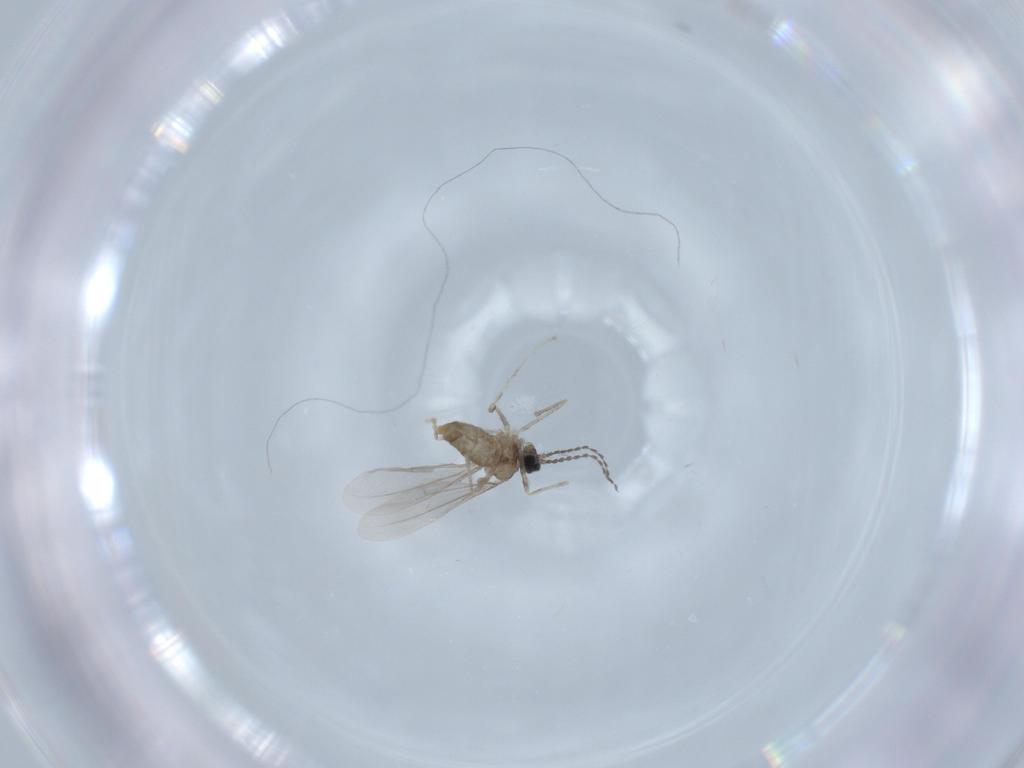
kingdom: Animalia
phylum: Arthropoda
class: Insecta
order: Diptera
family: Cecidomyiidae
